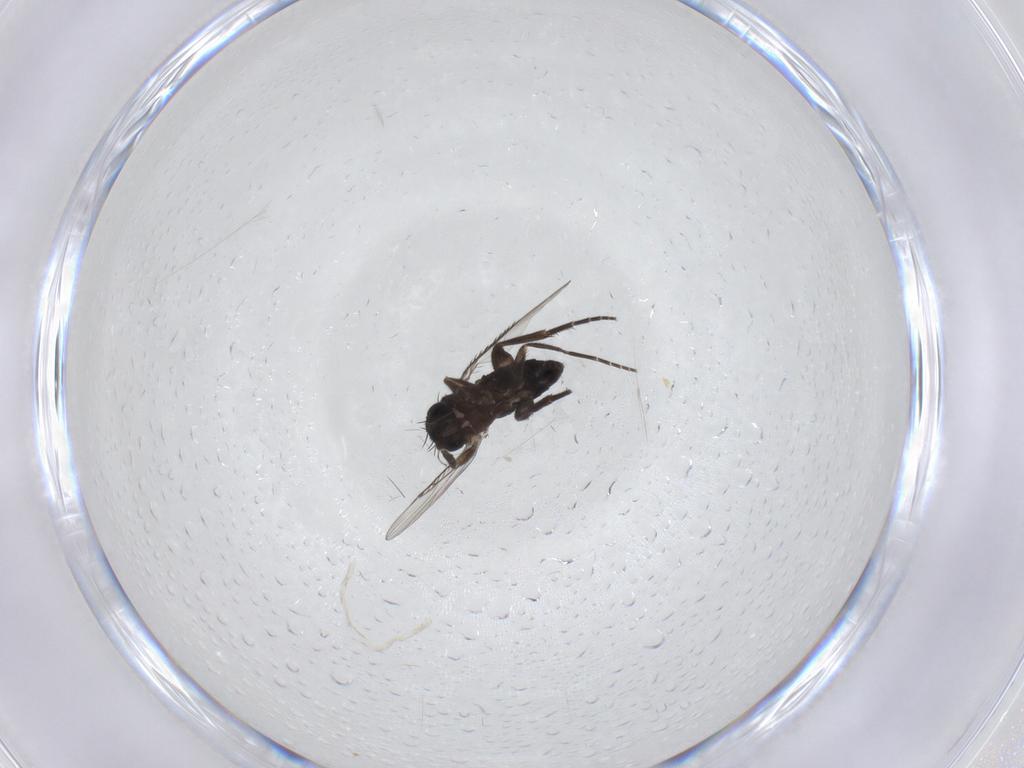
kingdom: Animalia
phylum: Arthropoda
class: Insecta
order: Diptera
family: Phoridae
